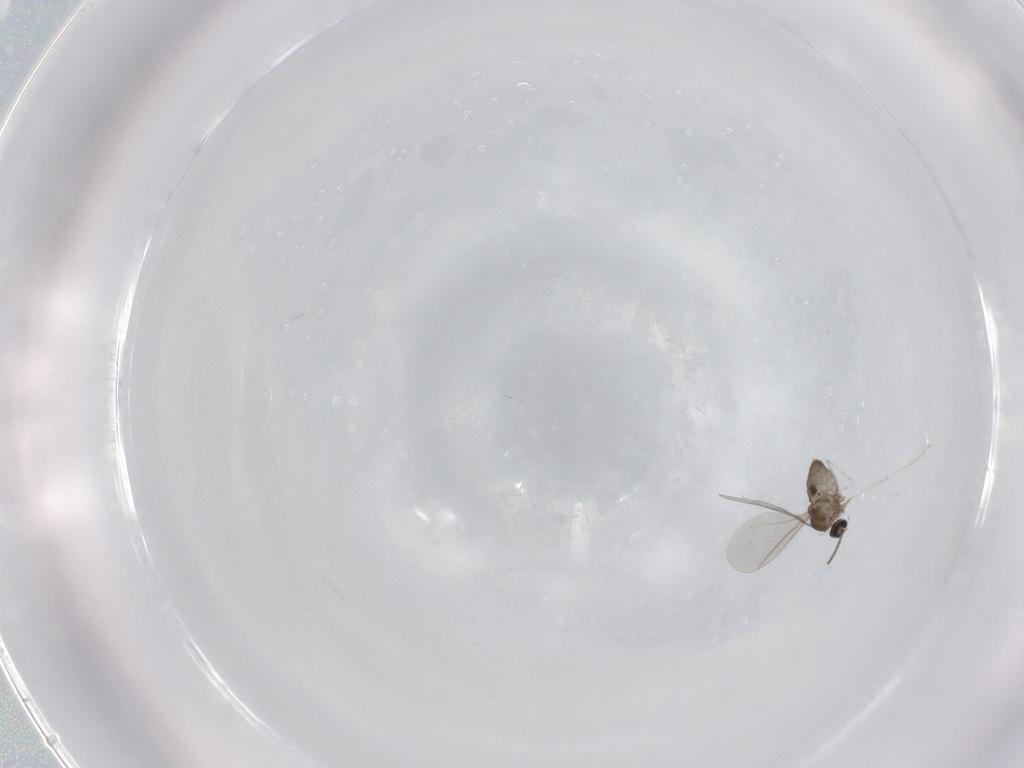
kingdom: Animalia
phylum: Arthropoda
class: Insecta
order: Diptera
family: Cecidomyiidae
